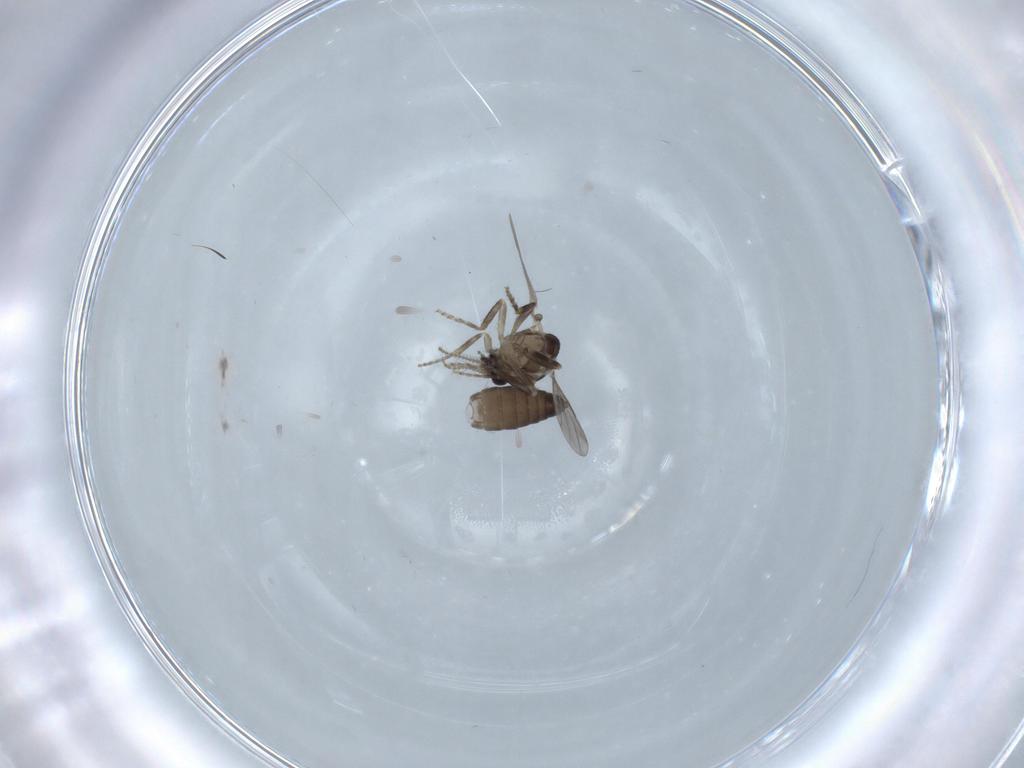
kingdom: Animalia
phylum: Arthropoda
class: Insecta
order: Diptera
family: Ceratopogonidae
